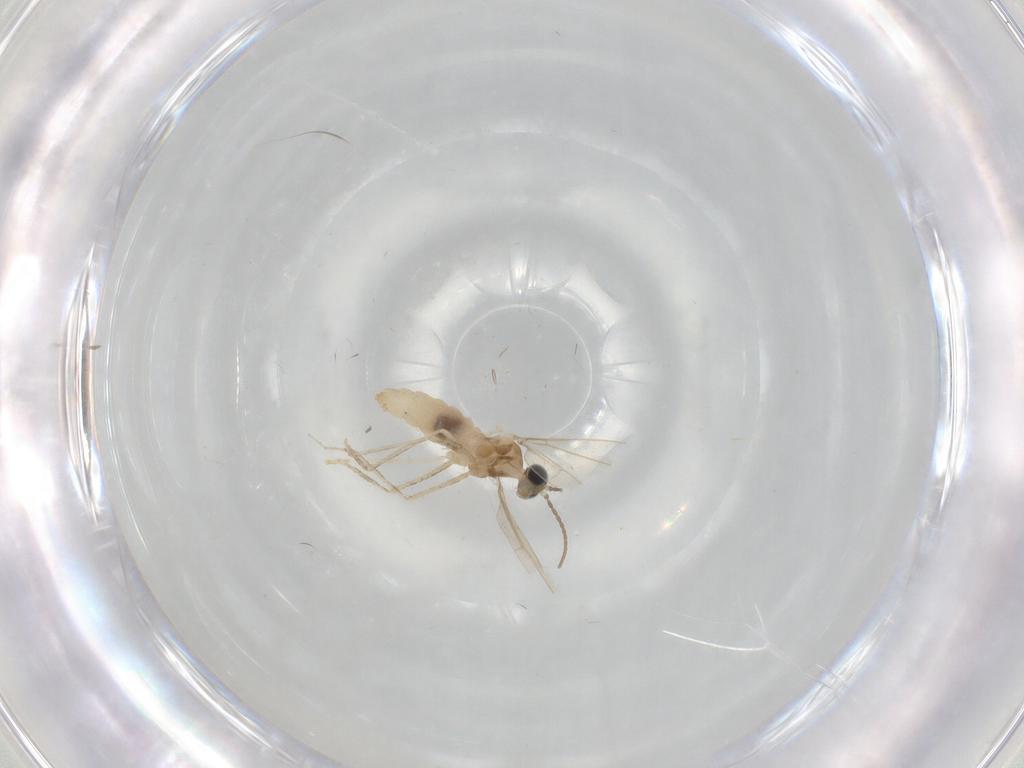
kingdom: Animalia
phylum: Arthropoda
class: Insecta
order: Diptera
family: Cecidomyiidae
